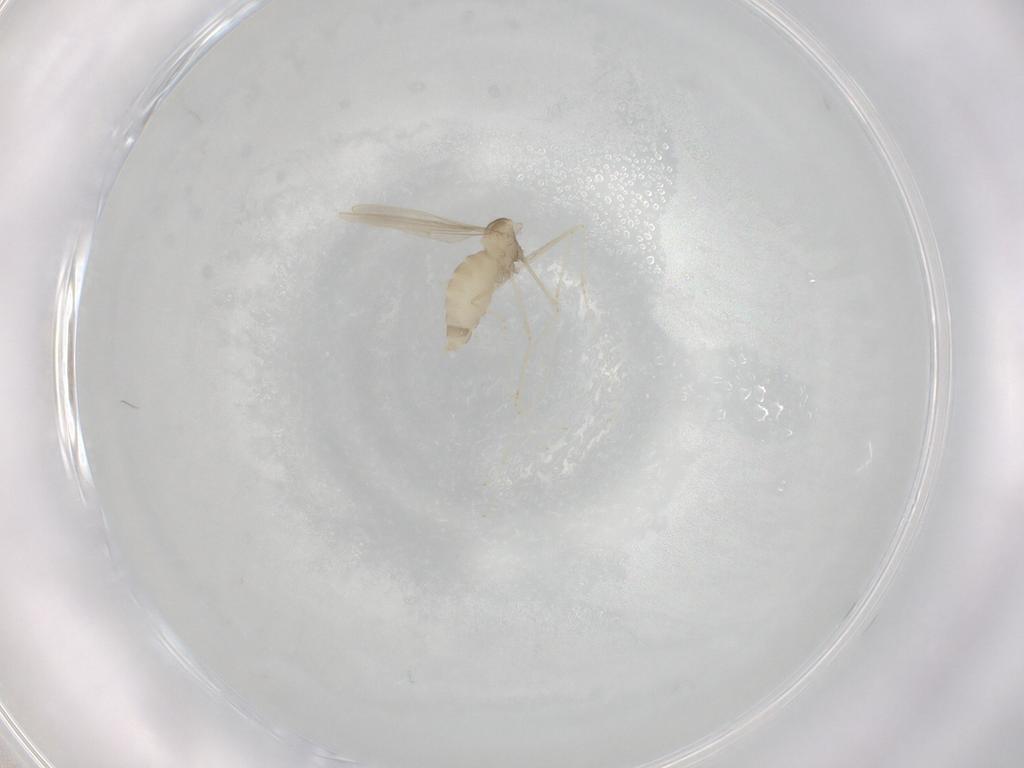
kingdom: Animalia
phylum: Arthropoda
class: Insecta
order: Diptera
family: Cecidomyiidae
